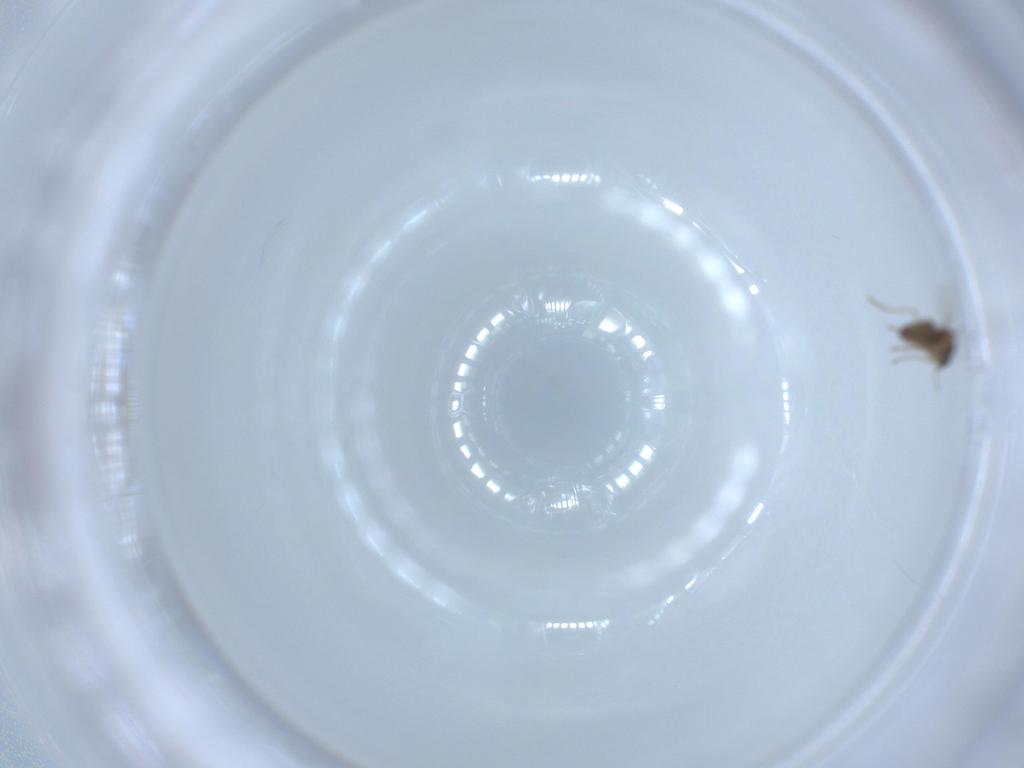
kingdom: Animalia
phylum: Arthropoda
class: Insecta
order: Diptera
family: Ceratopogonidae
